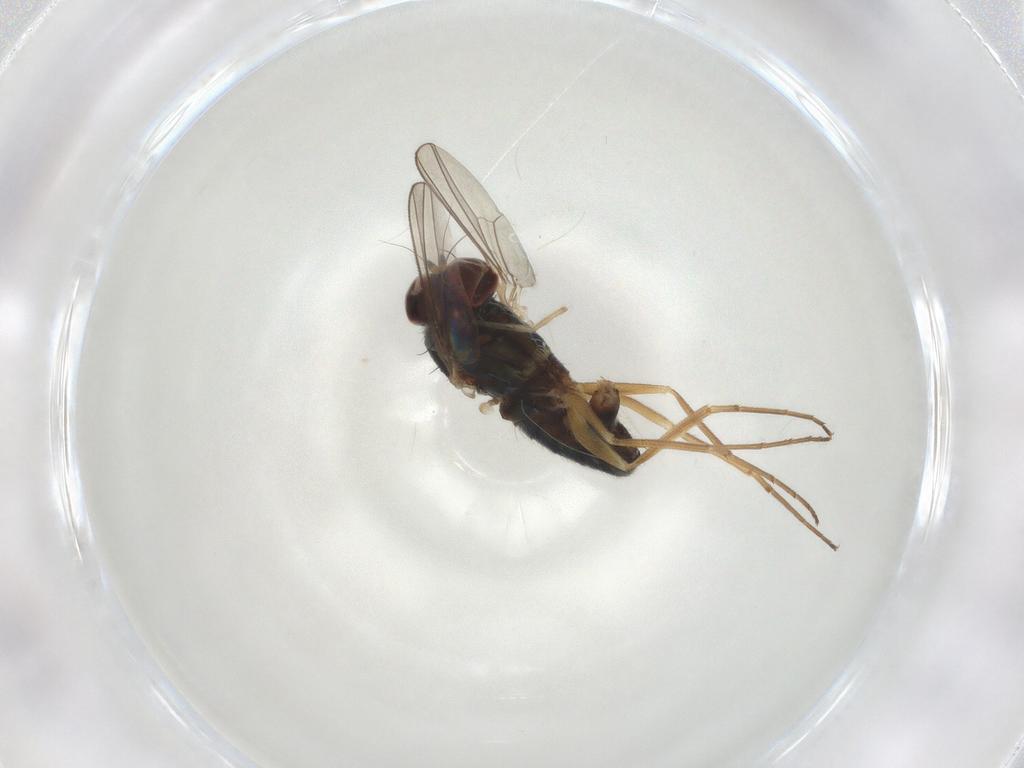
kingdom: Animalia
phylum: Arthropoda
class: Insecta
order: Diptera
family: Dolichopodidae
